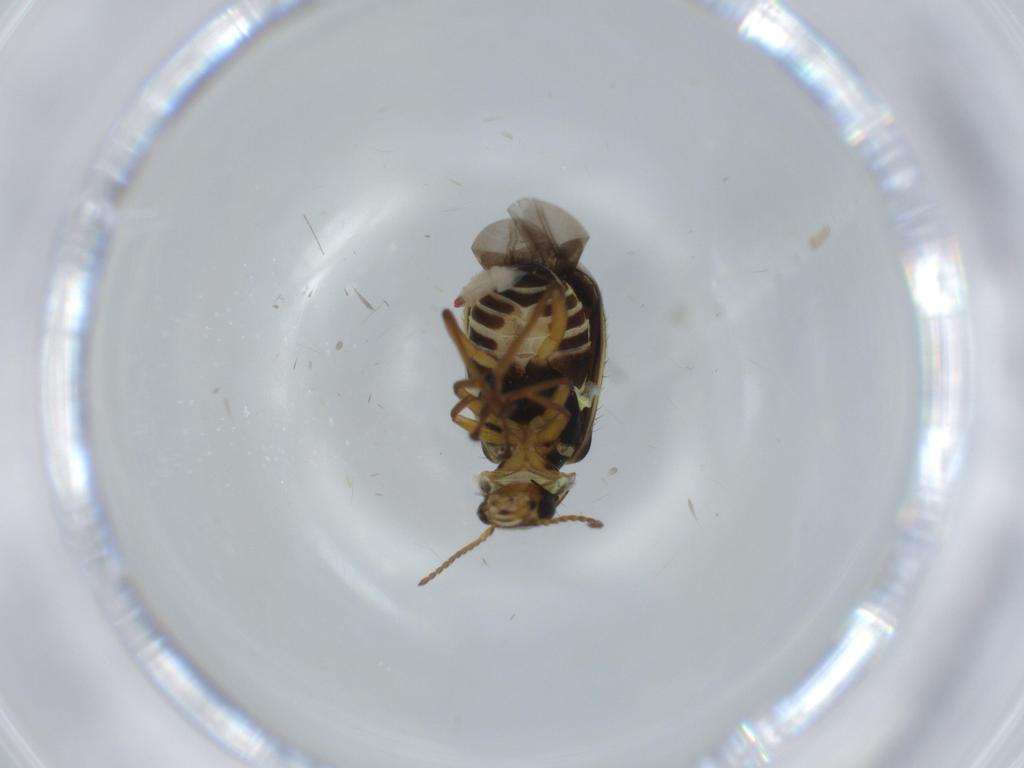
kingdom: Animalia
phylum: Arthropoda
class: Insecta
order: Coleoptera
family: Melyridae
